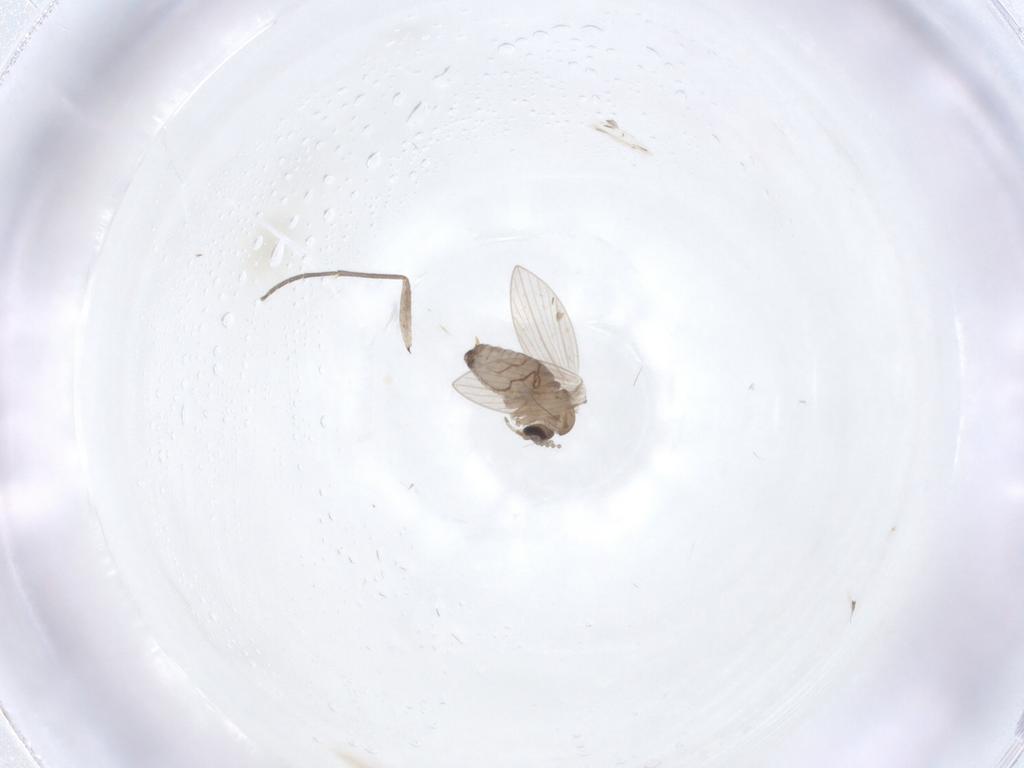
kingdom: Animalia
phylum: Arthropoda
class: Insecta
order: Diptera
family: Psychodidae
